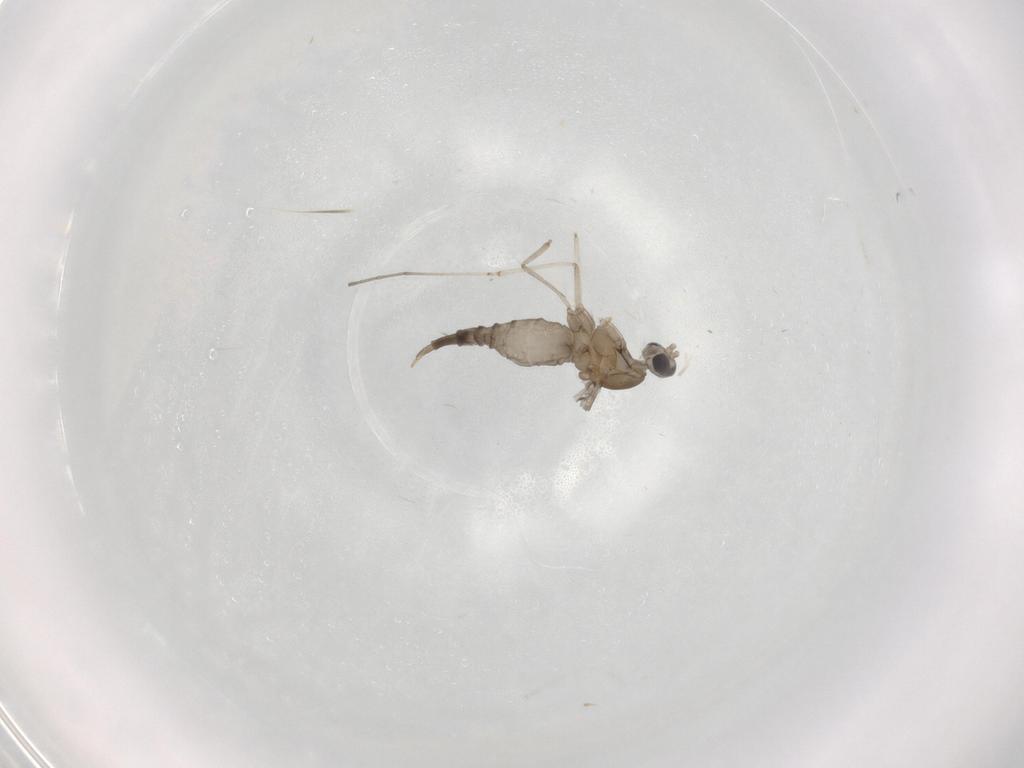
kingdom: Animalia
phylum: Arthropoda
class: Insecta
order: Diptera
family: Cecidomyiidae
